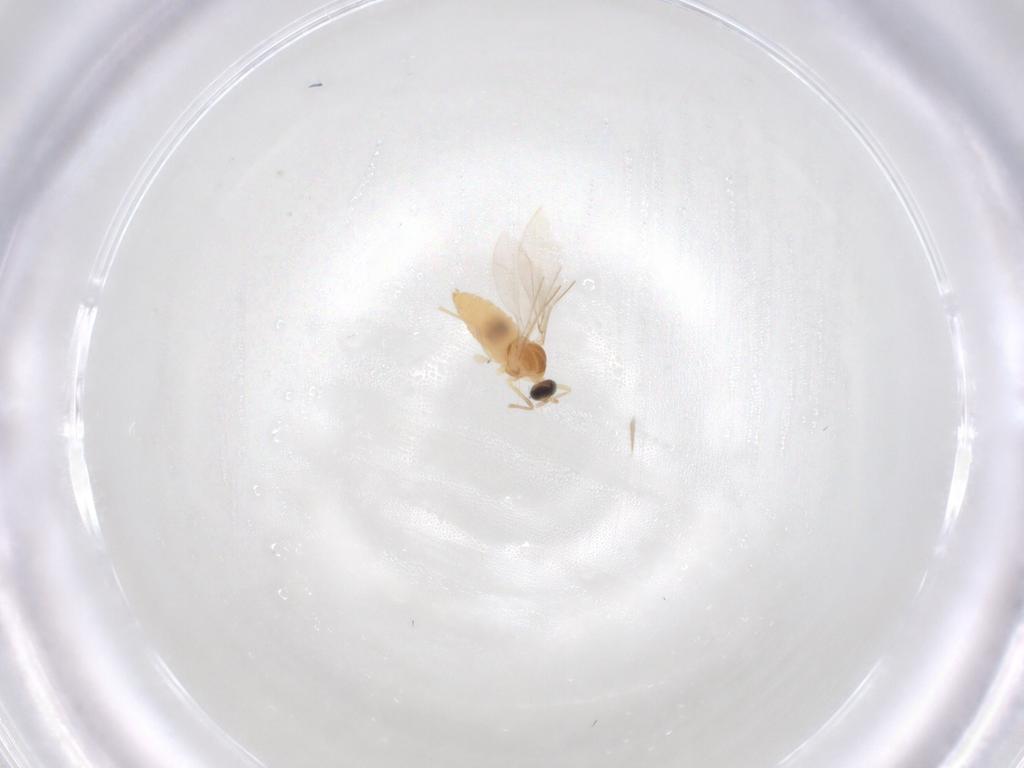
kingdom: Animalia
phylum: Arthropoda
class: Insecta
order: Diptera
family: Cecidomyiidae
